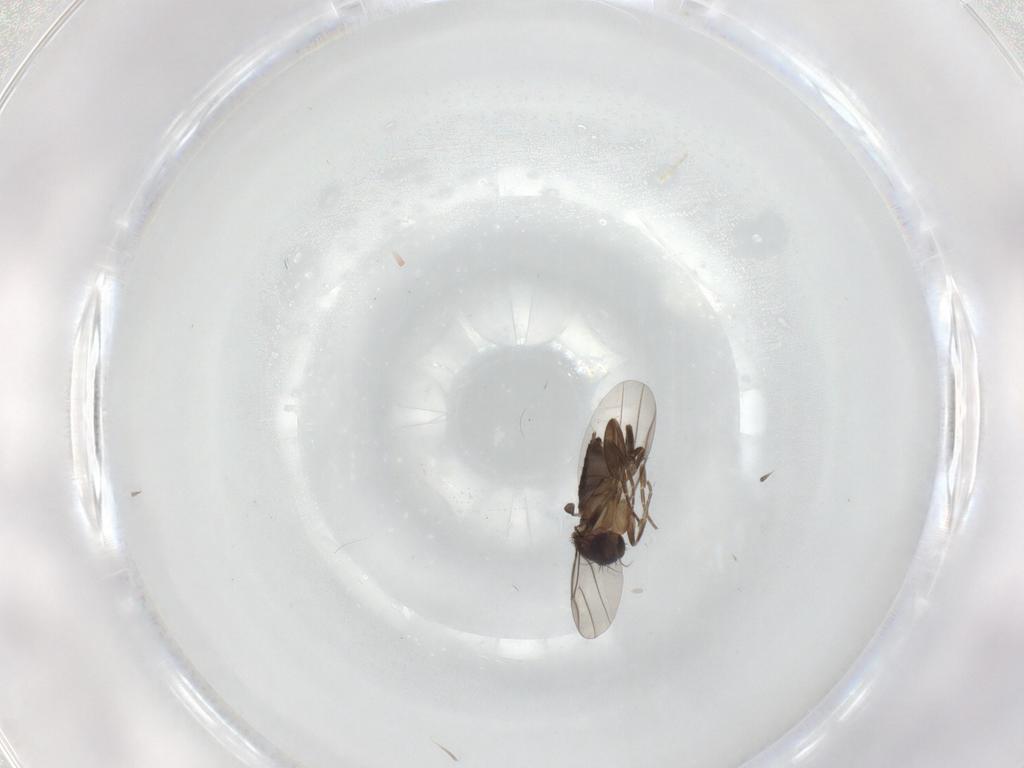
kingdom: Animalia
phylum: Arthropoda
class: Insecta
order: Diptera
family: Phoridae
